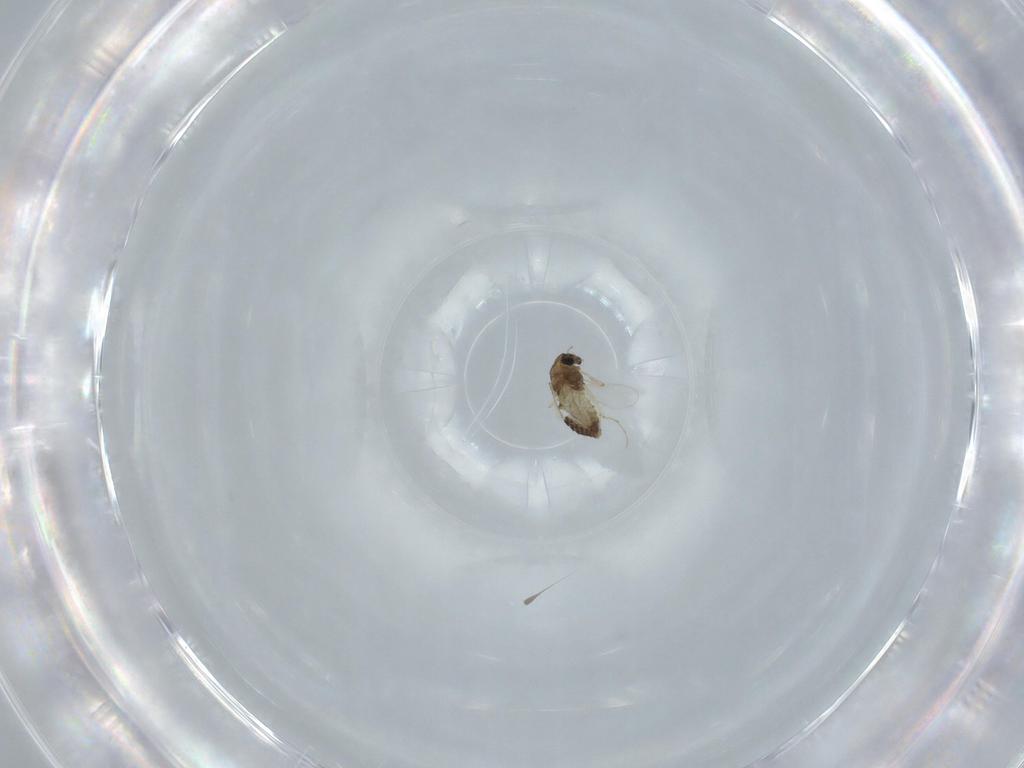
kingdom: Animalia
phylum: Arthropoda
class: Insecta
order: Diptera
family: Chironomidae
